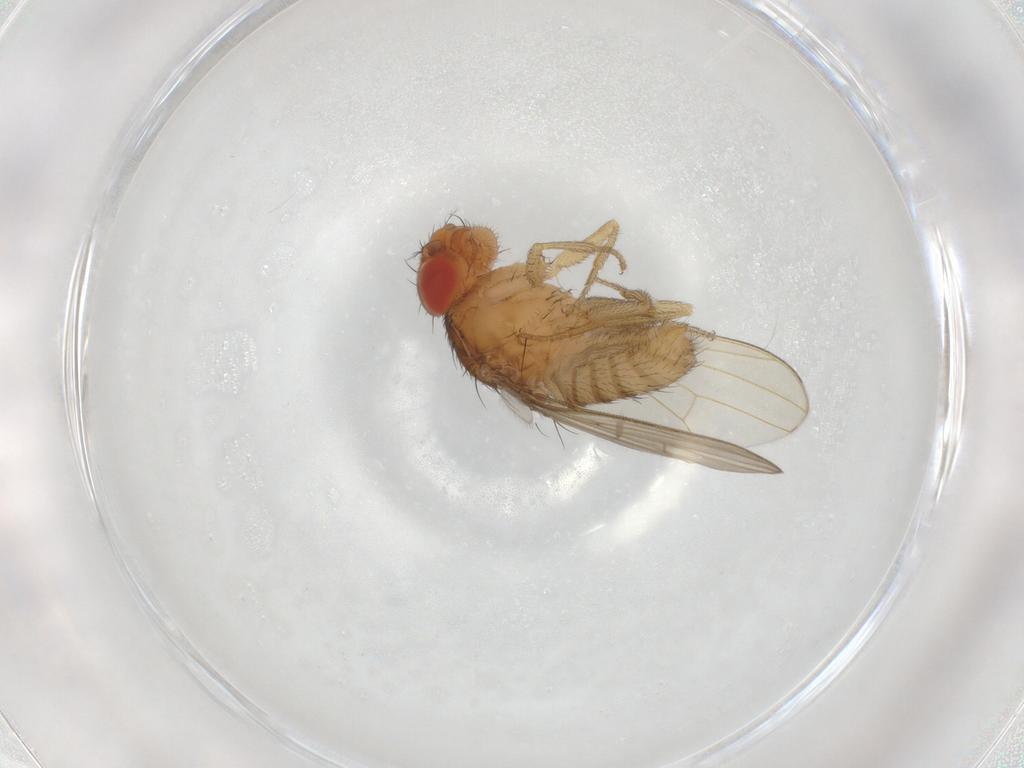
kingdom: Animalia
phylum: Arthropoda
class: Insecta
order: Diptera
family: Drosophilidae
